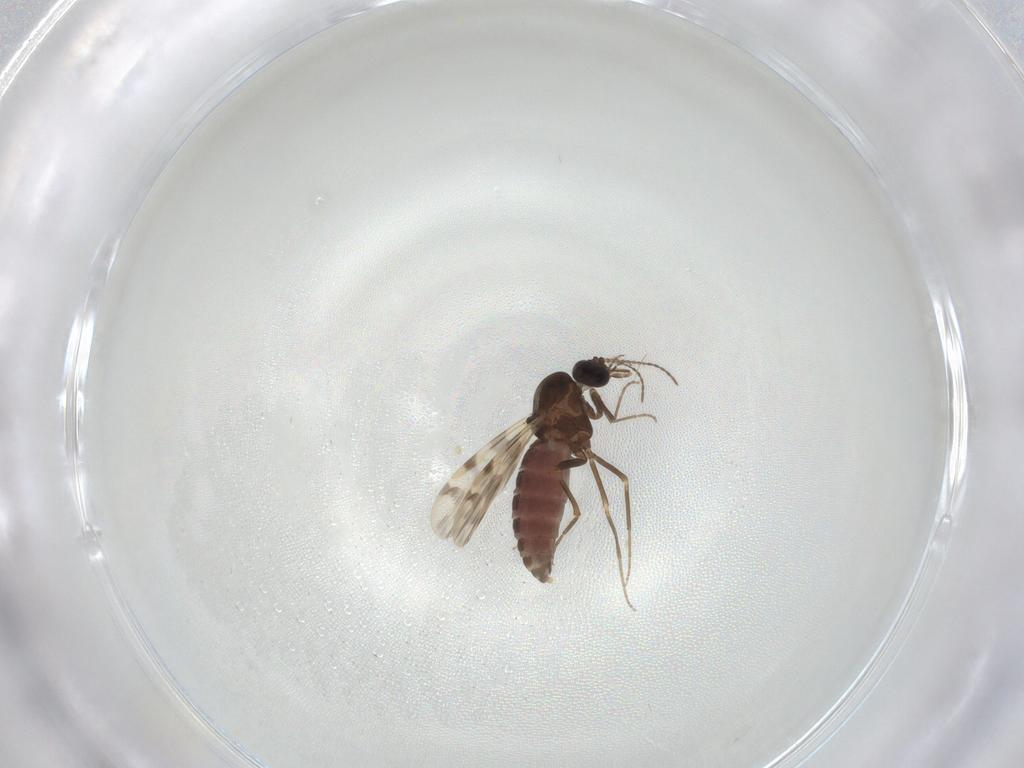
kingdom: Animalia
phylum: Arthropoda
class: Insecta
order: Diptera
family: Ceratopogonidae
